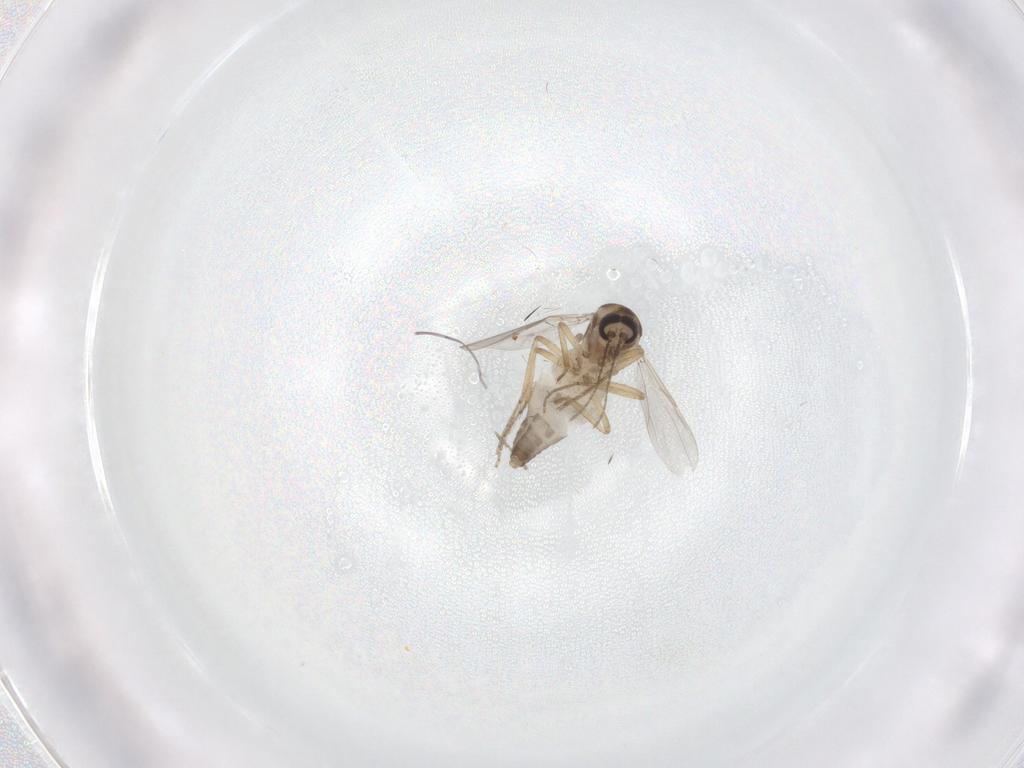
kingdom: Animalia
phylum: Arthropoda
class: Insecta
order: Diptera
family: Ceratopogonidae
